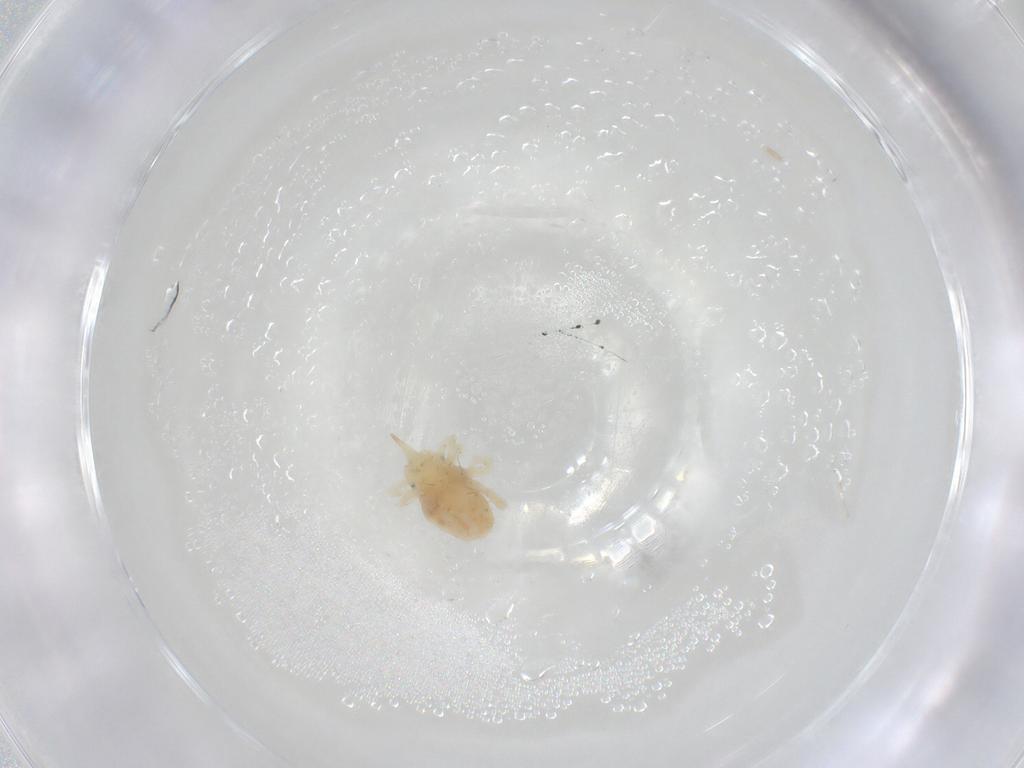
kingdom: Animalia
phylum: Arthropoda
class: Arachnida
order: Trombidiformes
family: Bdellidae
